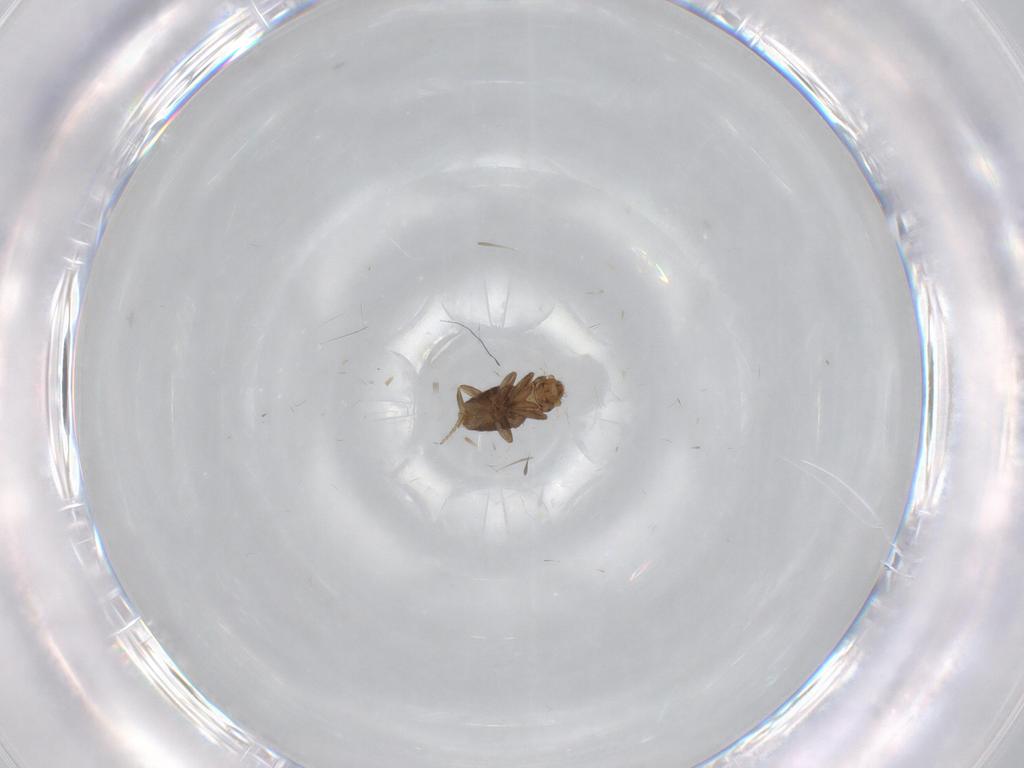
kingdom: Animalia
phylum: Arthropoda
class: Insecta
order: Diptera
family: Phoridae
